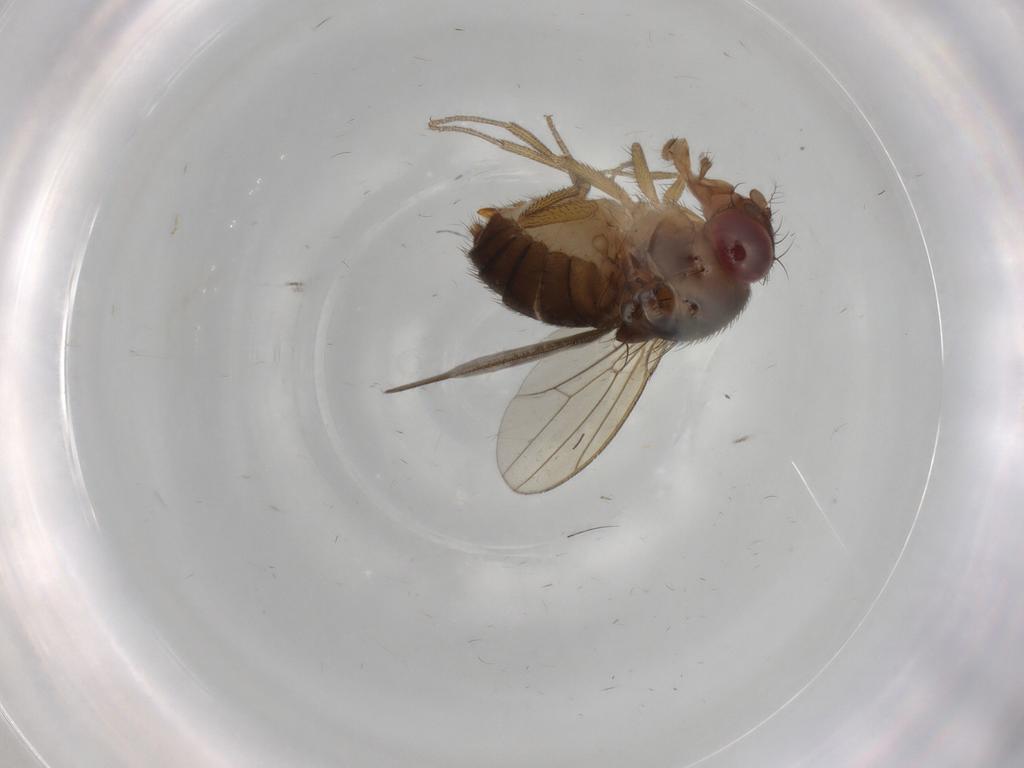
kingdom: Animalia
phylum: Arthropoda
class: Insecta
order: Diptera
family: Drosophilidae
